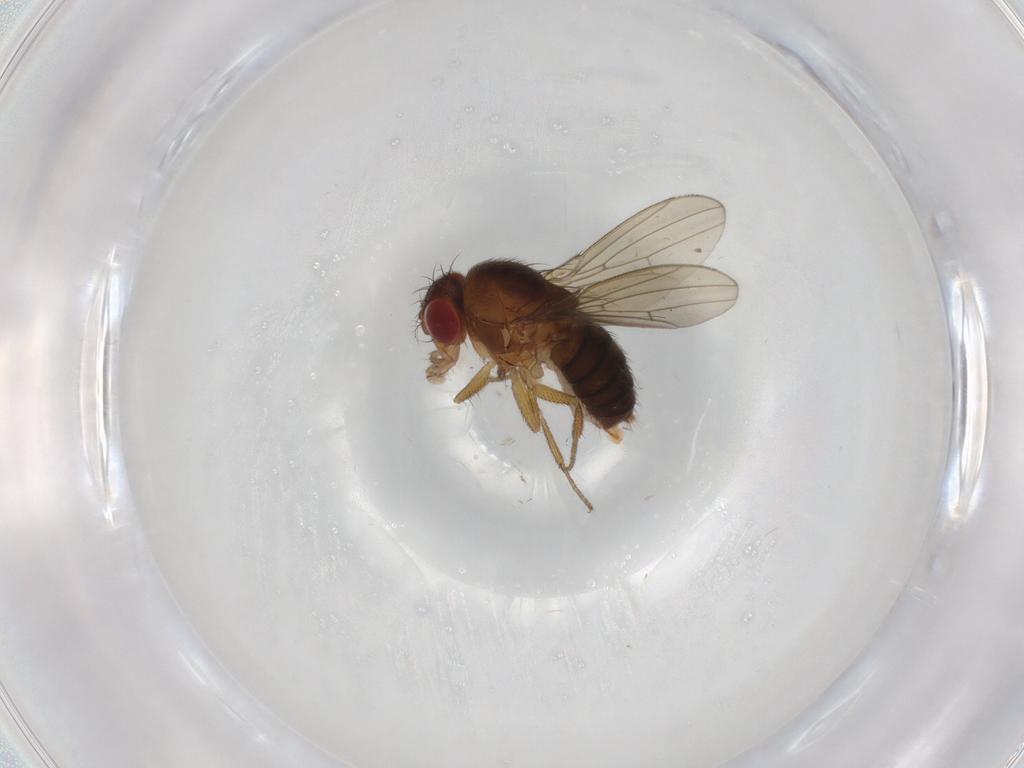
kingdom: Animalia
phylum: Arthropoda
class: Insecta
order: Diptera
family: Drosophilidae
